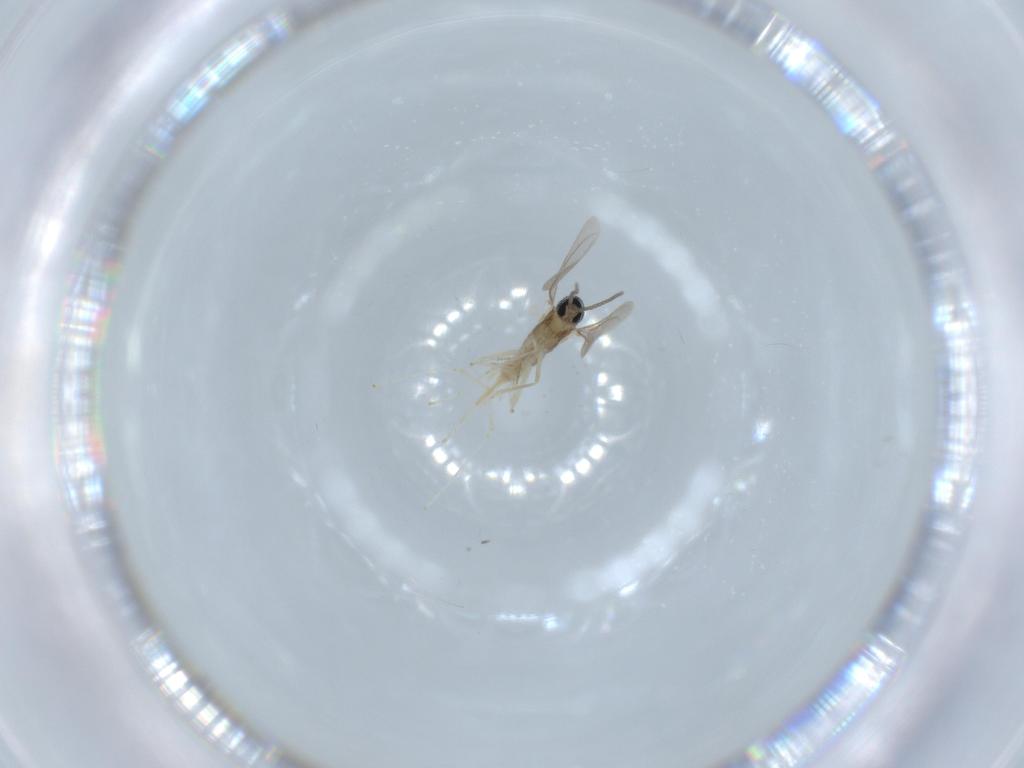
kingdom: Animalia
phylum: Arthropoda
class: Insecta
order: Diptera
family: Cecidomyiidae
